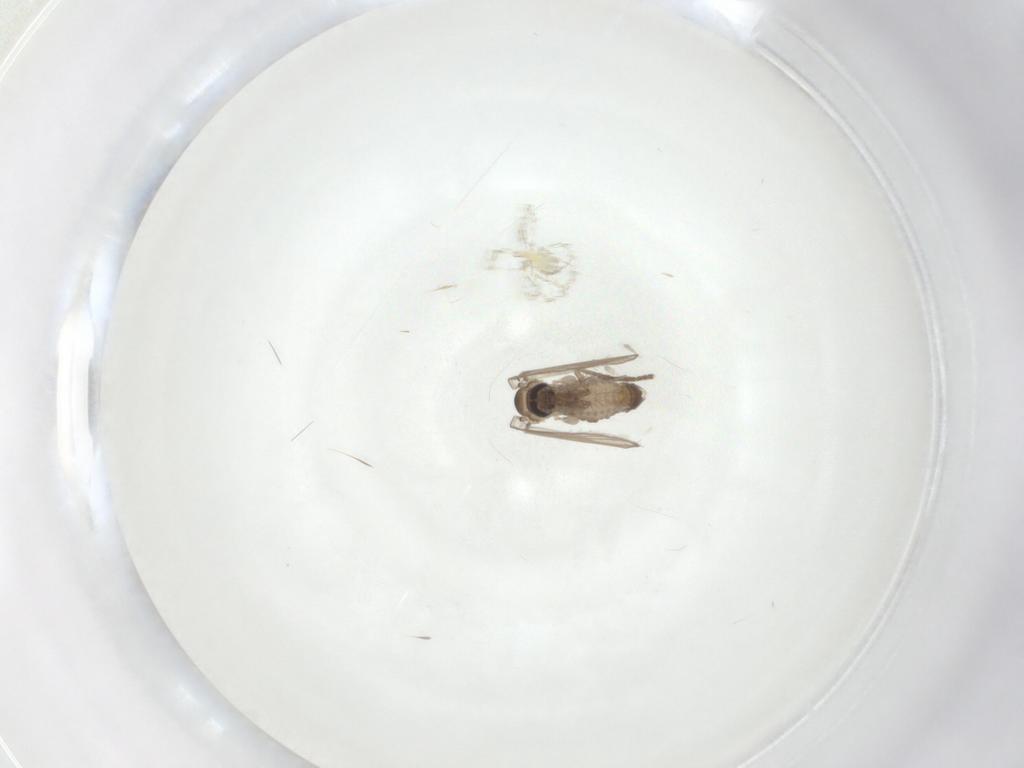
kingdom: Animalia
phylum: Arthropoda
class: Insecta
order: Diptera
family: Psychodidae
